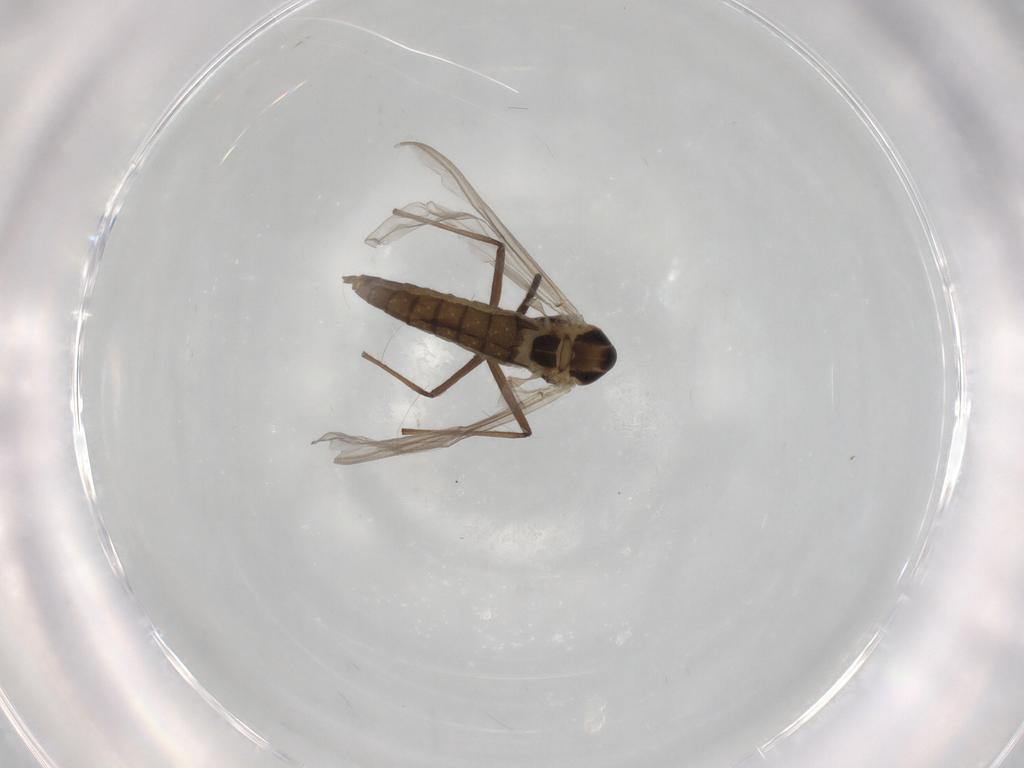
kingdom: Animalia
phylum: Arthropoda
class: Insecta
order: Diptera
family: Chironomidae
